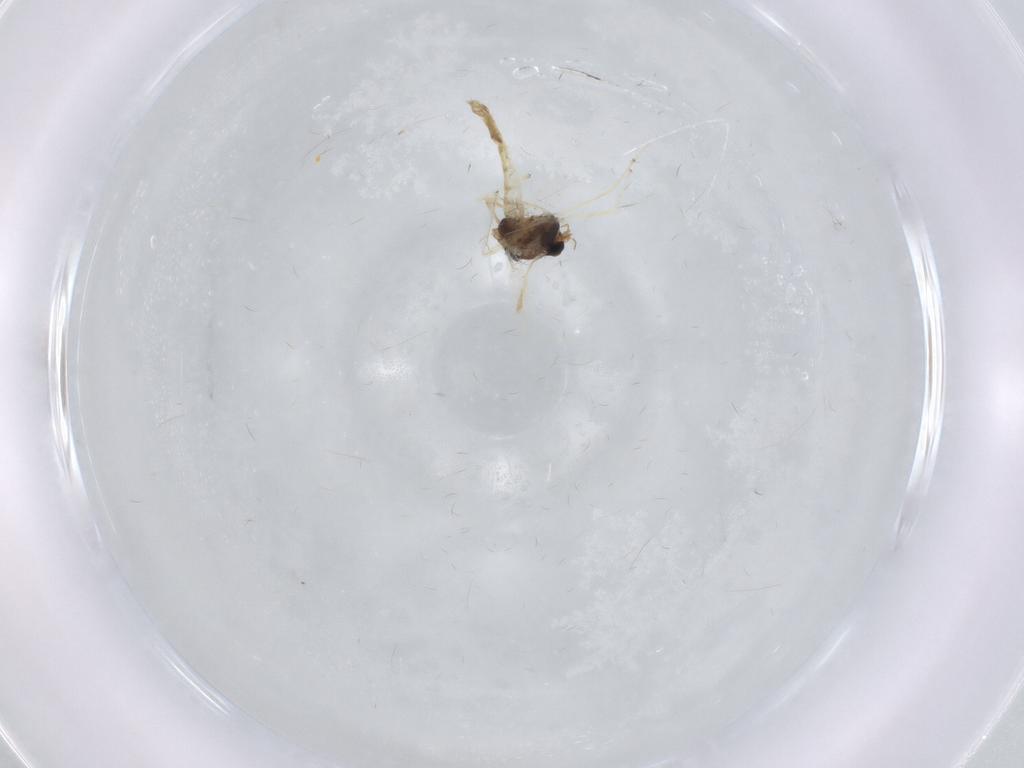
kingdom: Animalia
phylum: Arthropoda
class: Insecta
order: Diptera
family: Chironomidae
